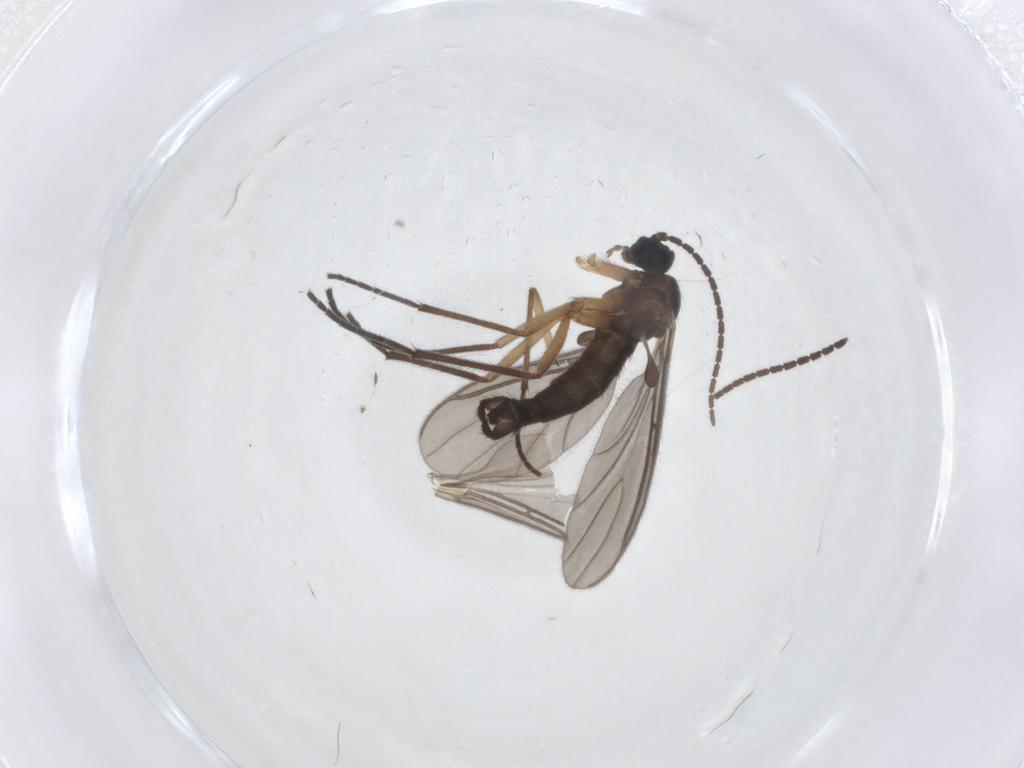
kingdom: Animalia
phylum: Arthropoda
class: Insecta
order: Diptera
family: Sciaridae
